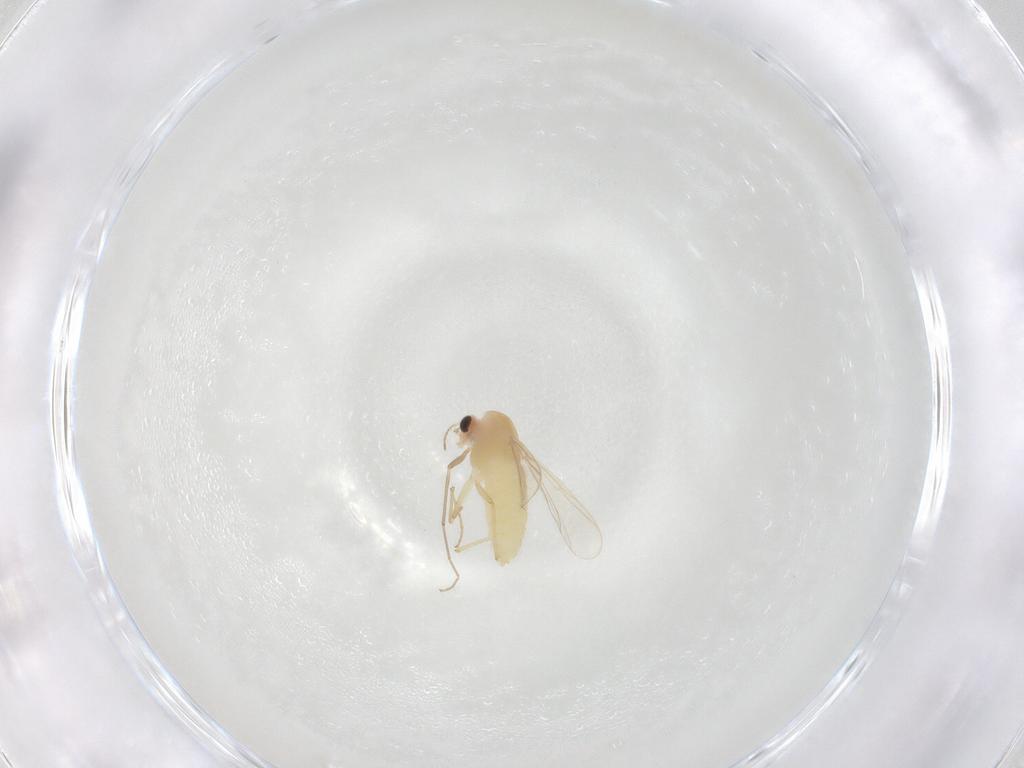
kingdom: Animalia
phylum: Arthropoda
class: Insecta
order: Diptera
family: Chironomidae
